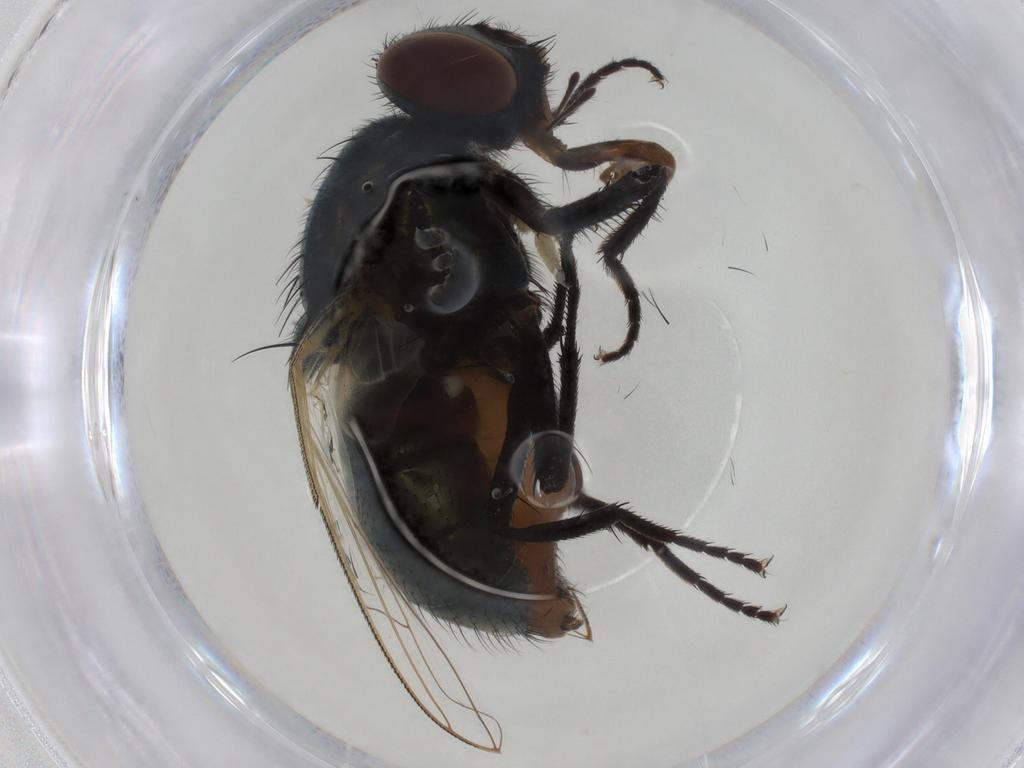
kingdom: Animalia
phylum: Arthropoda
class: Insecta
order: Diptera
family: Muscidae
